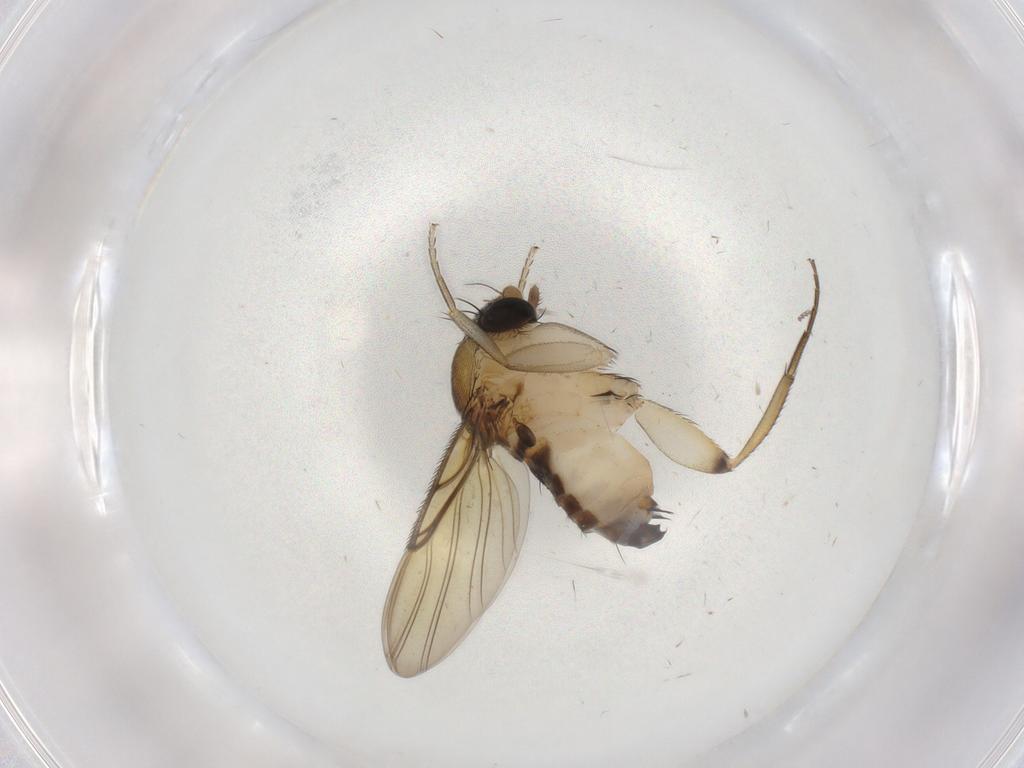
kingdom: Animalia
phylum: Arthropoda
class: Insecta
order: Diptera
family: Phoridae
